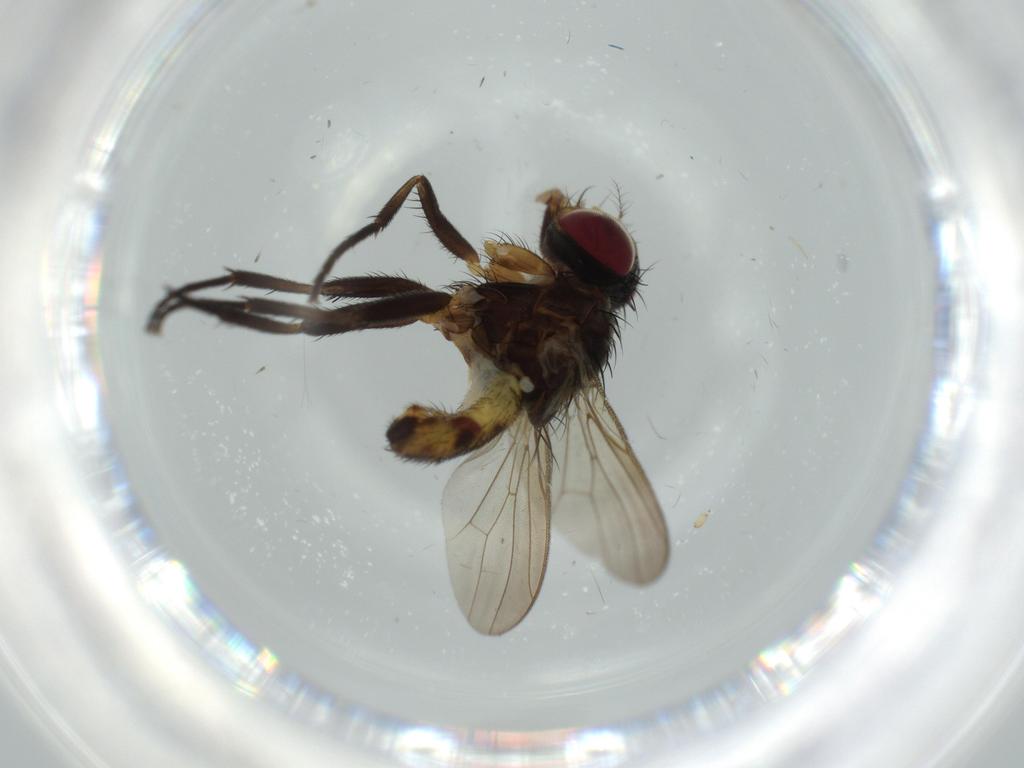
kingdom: Animalia
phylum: Arthropoda
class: Insecta
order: Diptera
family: Anthomyiidae
